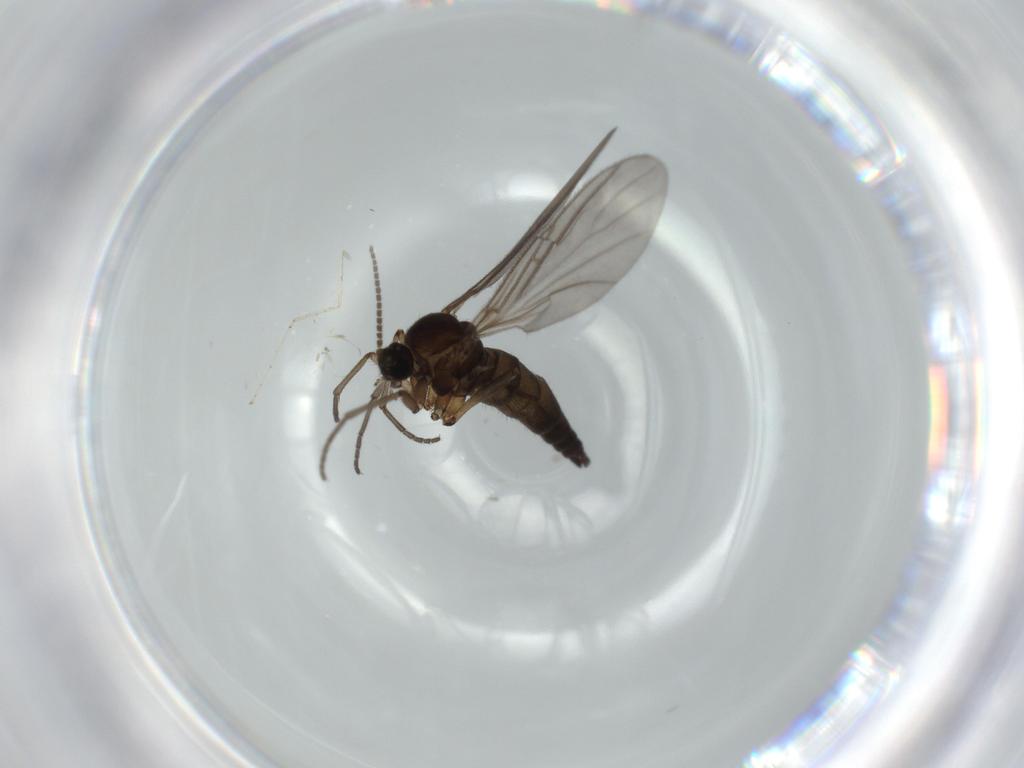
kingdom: Animalia
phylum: Arthropoda
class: Insecta
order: Diptera
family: Sciaridae
